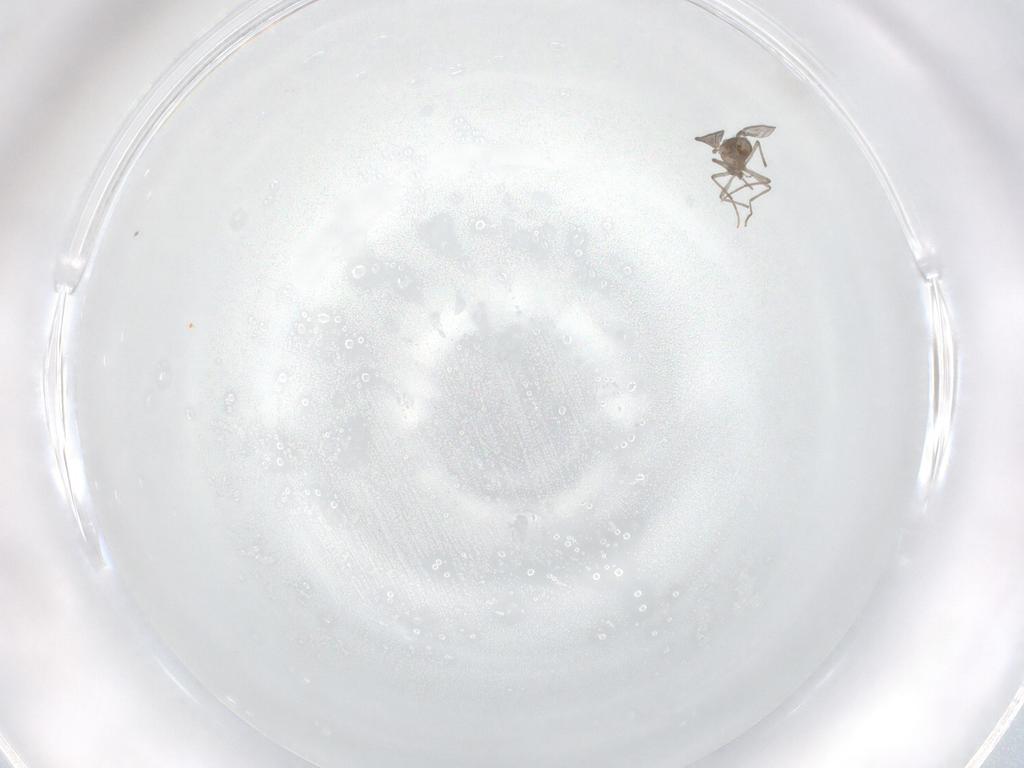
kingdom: Animalia
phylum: Arthropoda
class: Insecta
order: Diptera
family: Chironomidae
